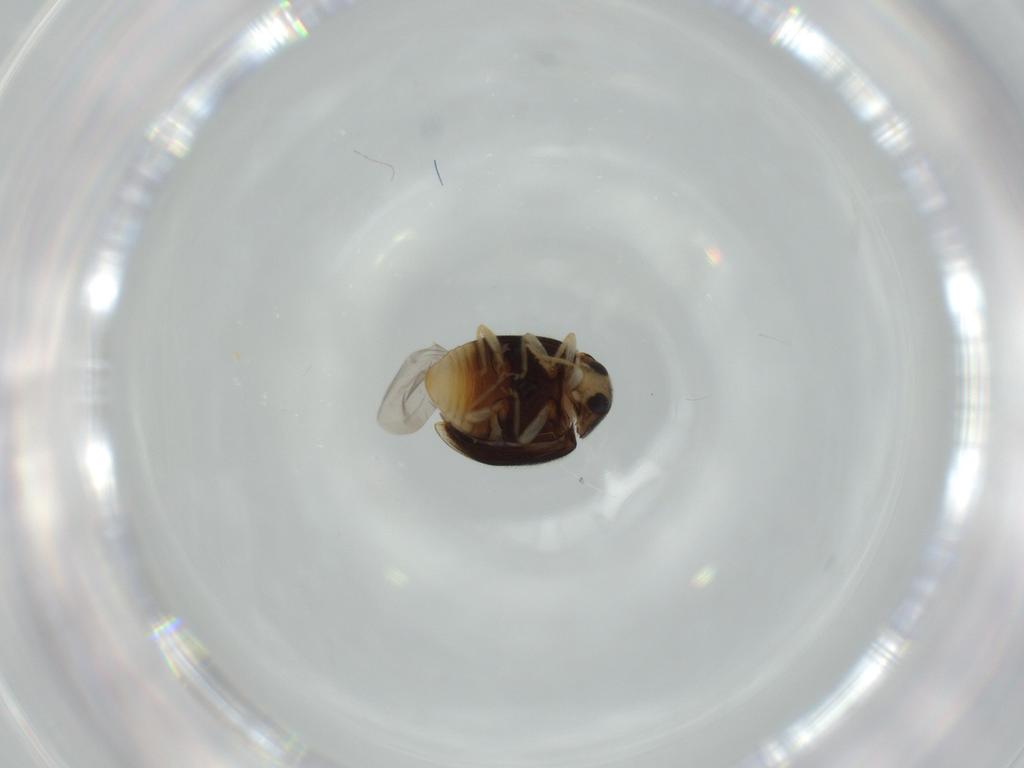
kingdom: Animalia
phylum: Arthropoda
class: Insecta
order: Coleoptera
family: Coccinellidae
